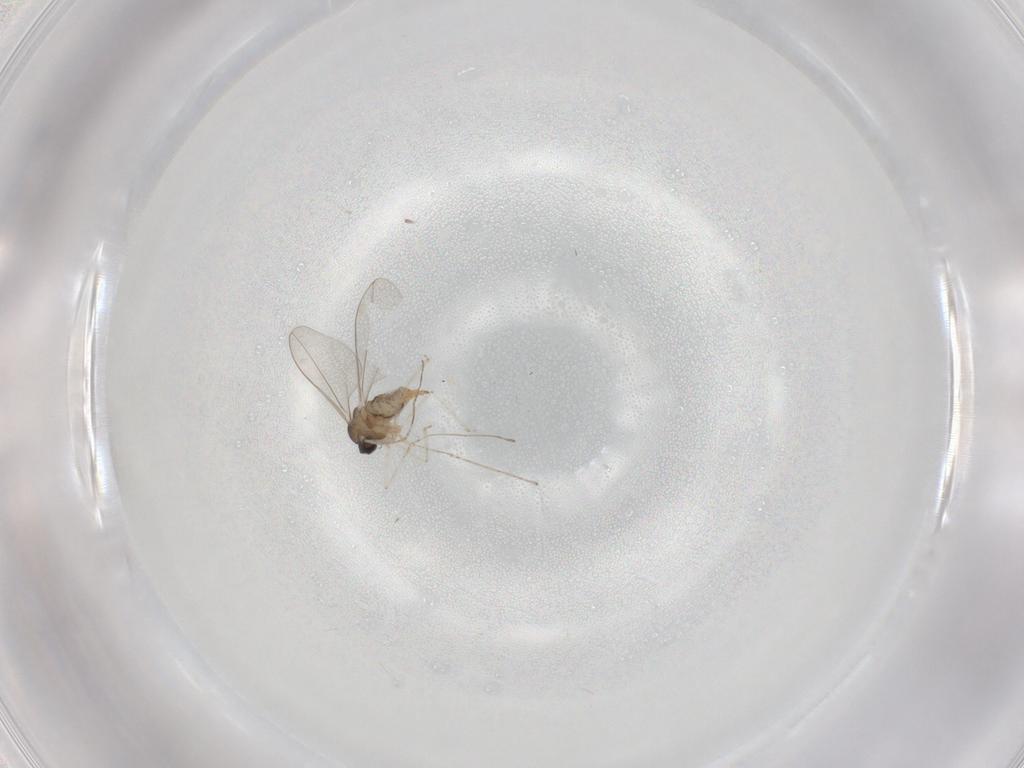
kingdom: Animalia
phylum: Arthropoda
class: Insecta
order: Diptera
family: Cecidomyiidae
